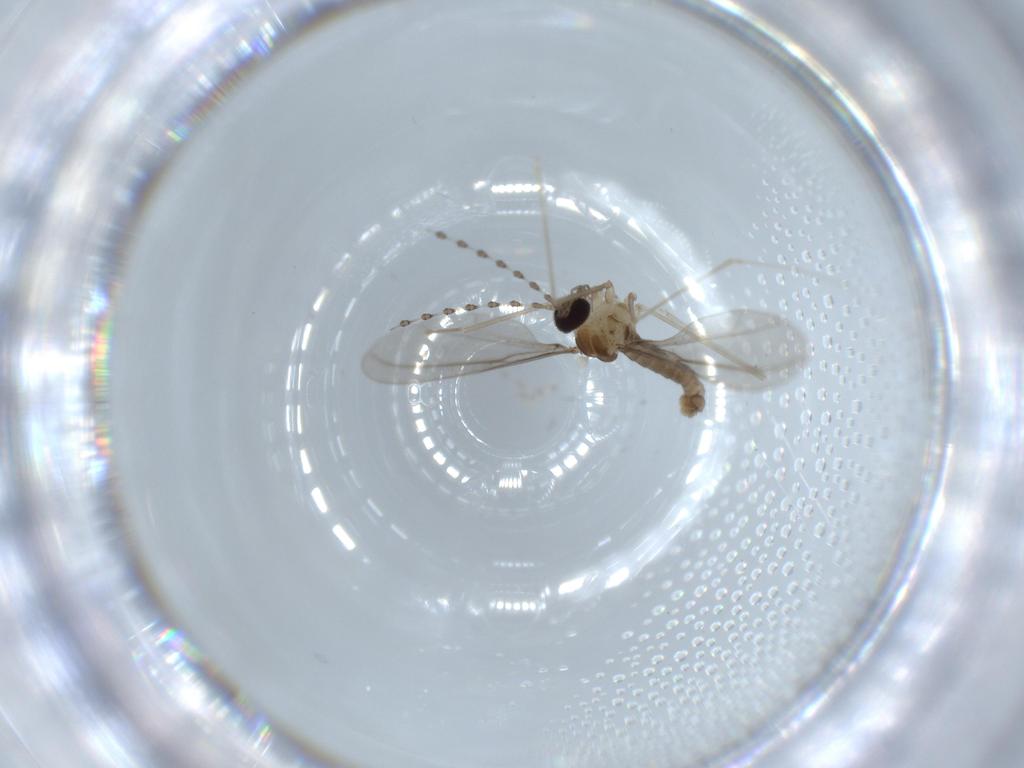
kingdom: Animalia
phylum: Arthropoda
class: Insecta
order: Diptera
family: Cecidomyiidae
